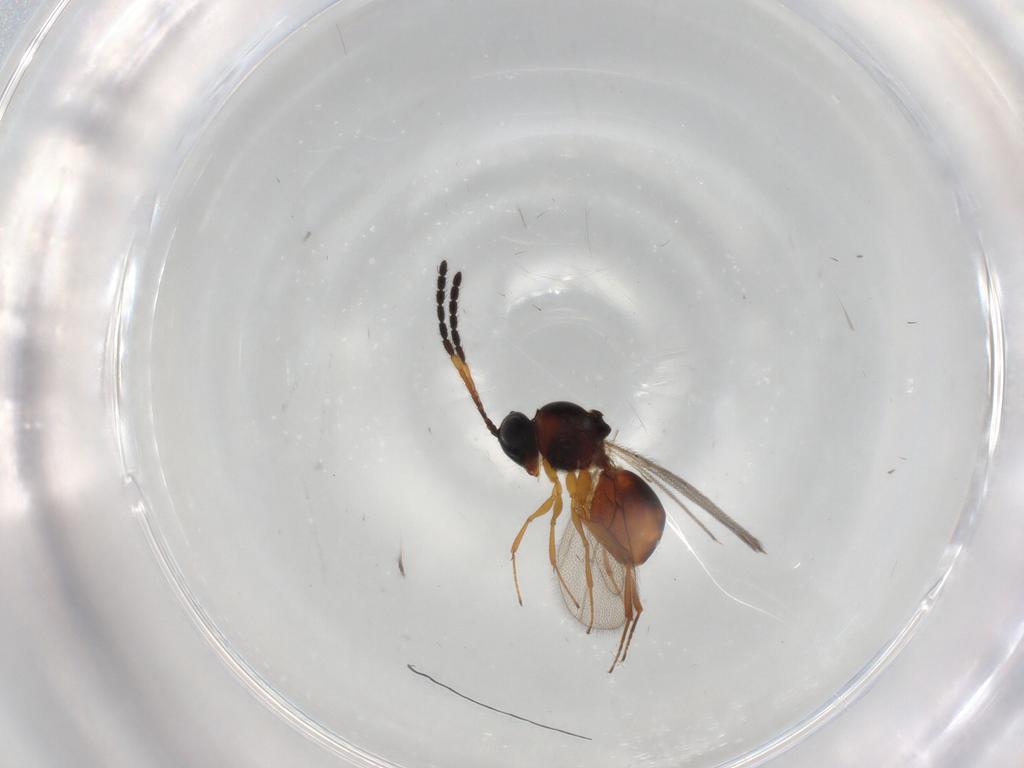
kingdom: Animalia
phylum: Arthropoda
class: Insecta
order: Hymenoptera
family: Figitidae
